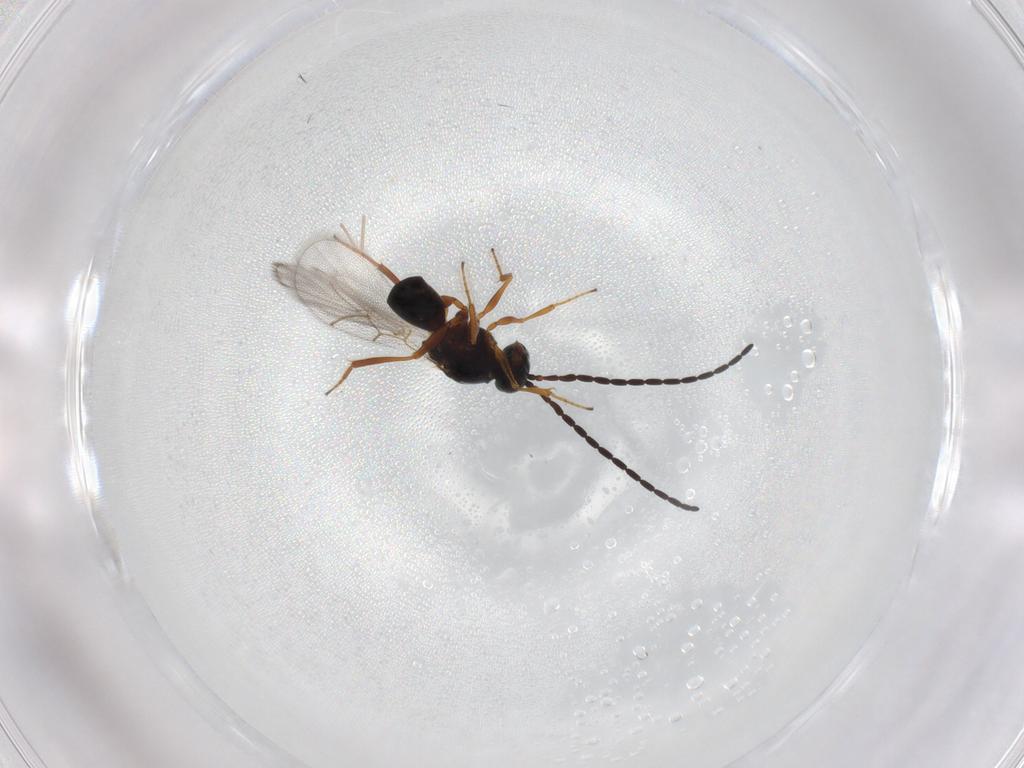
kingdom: Animalia
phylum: Arthropoda
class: Insecta
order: Hymenoptera
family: Figitidae
